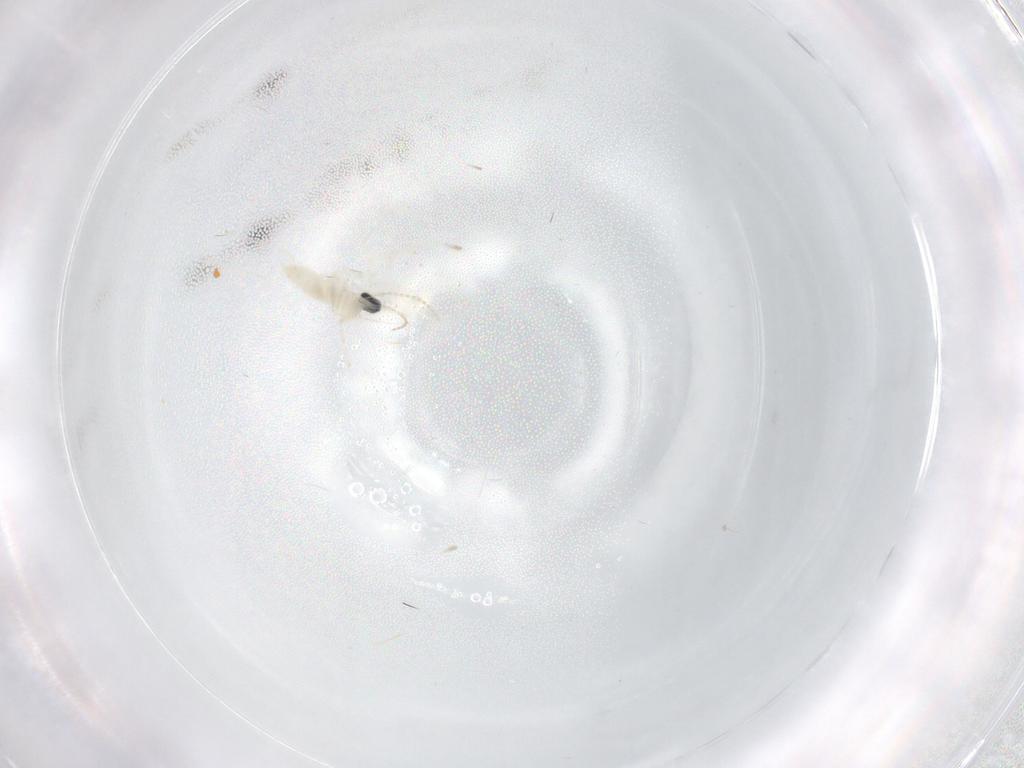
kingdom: Animalia
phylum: Arthropoda
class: Insecta
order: Diptera
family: Cecidomyiidae
